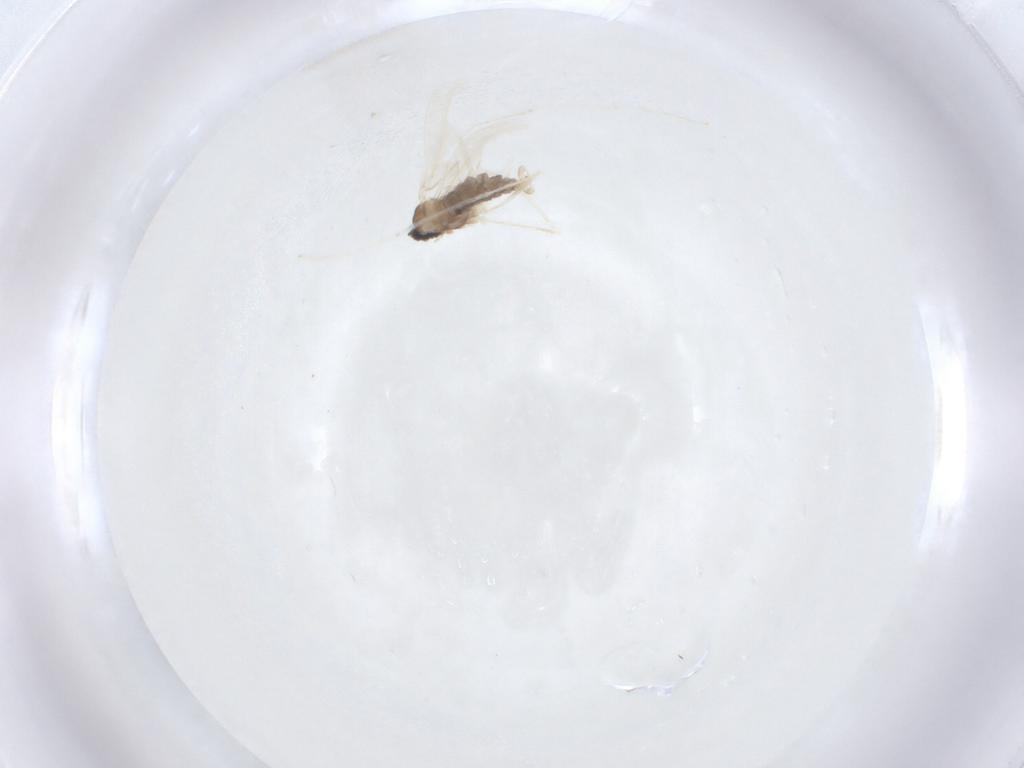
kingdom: Animalia
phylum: Arthropoda
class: Insecta
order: Diptera
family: Cecidomyiidae
